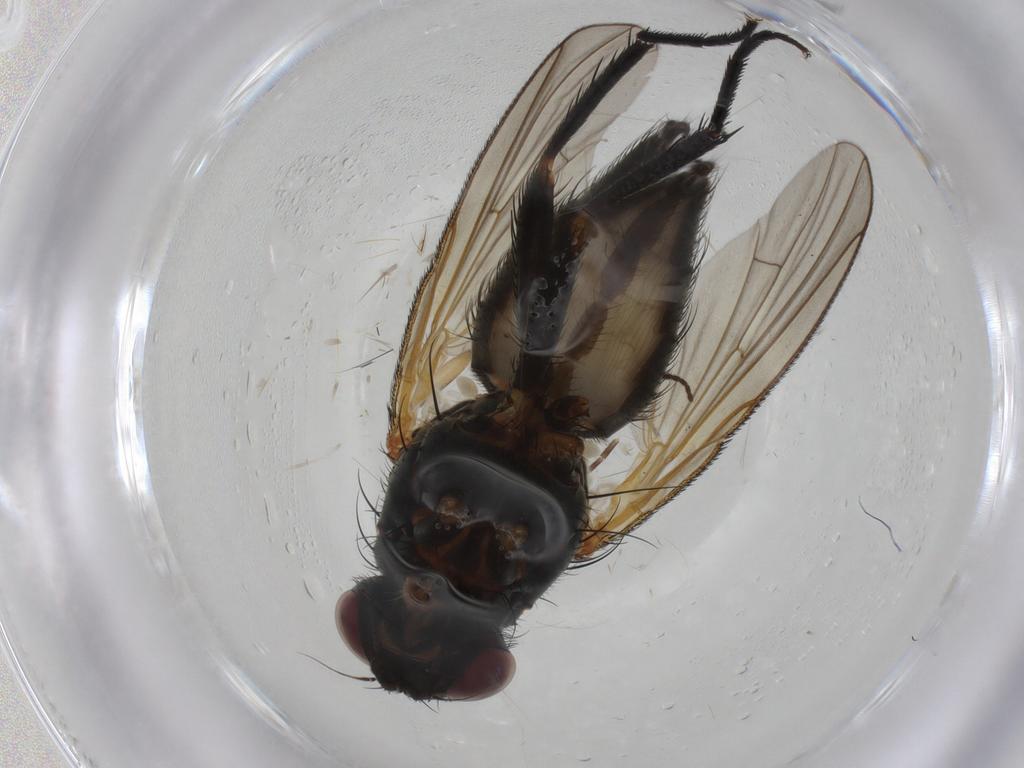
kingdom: Animalia
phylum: Arthropoda
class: Insecta
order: Diptera
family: Anthomyiidae
